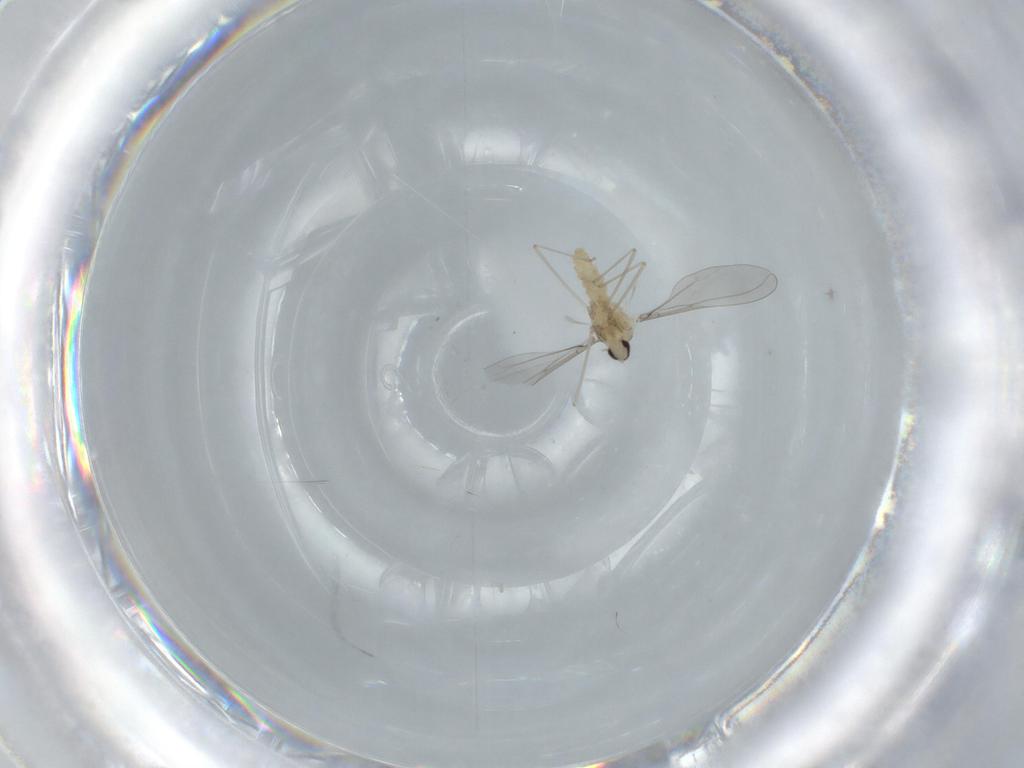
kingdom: Animalia
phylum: Arthropoda
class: Insecta
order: Diptera
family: Cecidomyiidae
